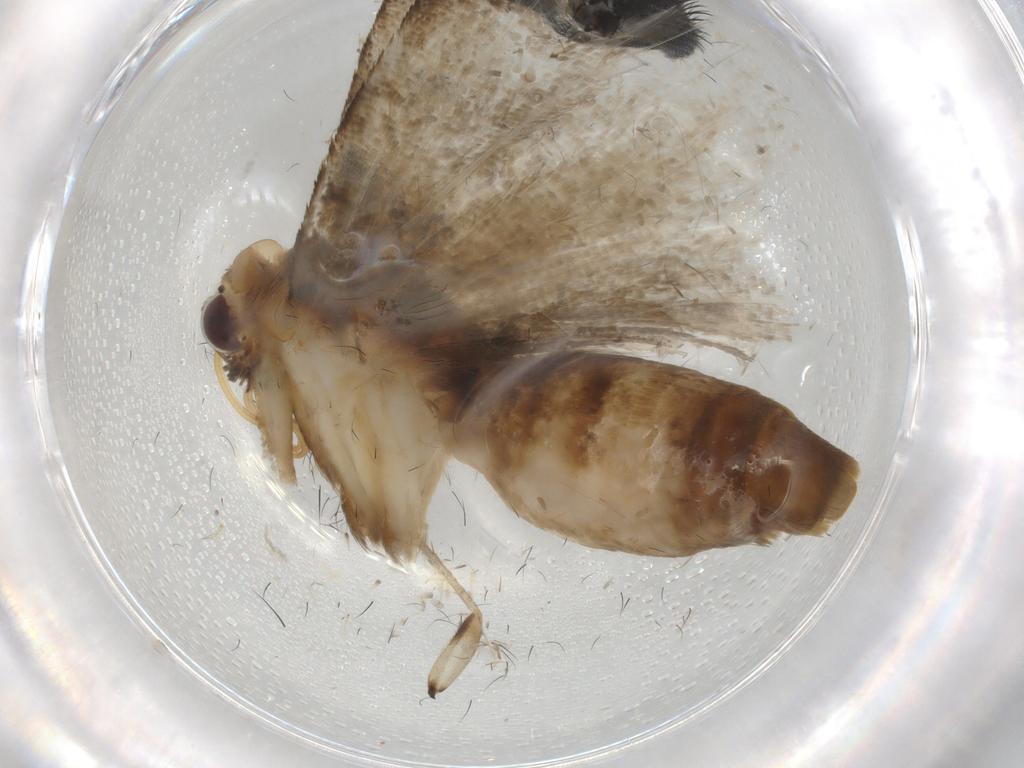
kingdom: Animalia
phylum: Arthropoda
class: Insecta
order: Lepidoptera
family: Erebidae
